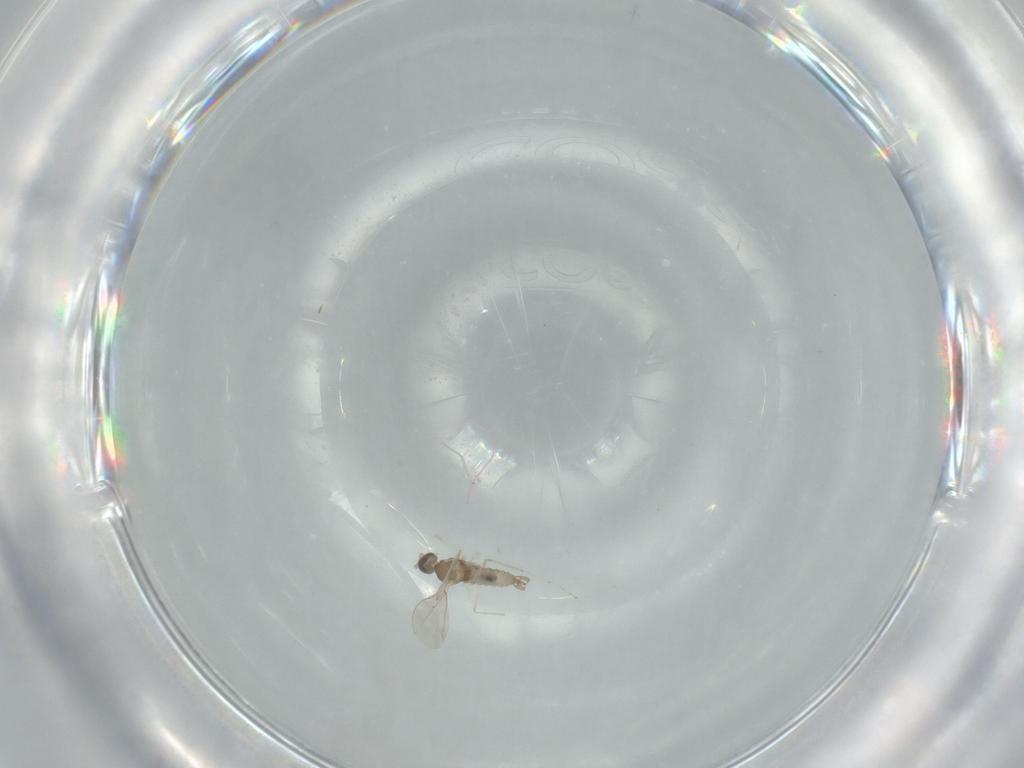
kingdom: Animalia
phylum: Arthropoda
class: Insecta
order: Diptera
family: Cecidomyiidae
